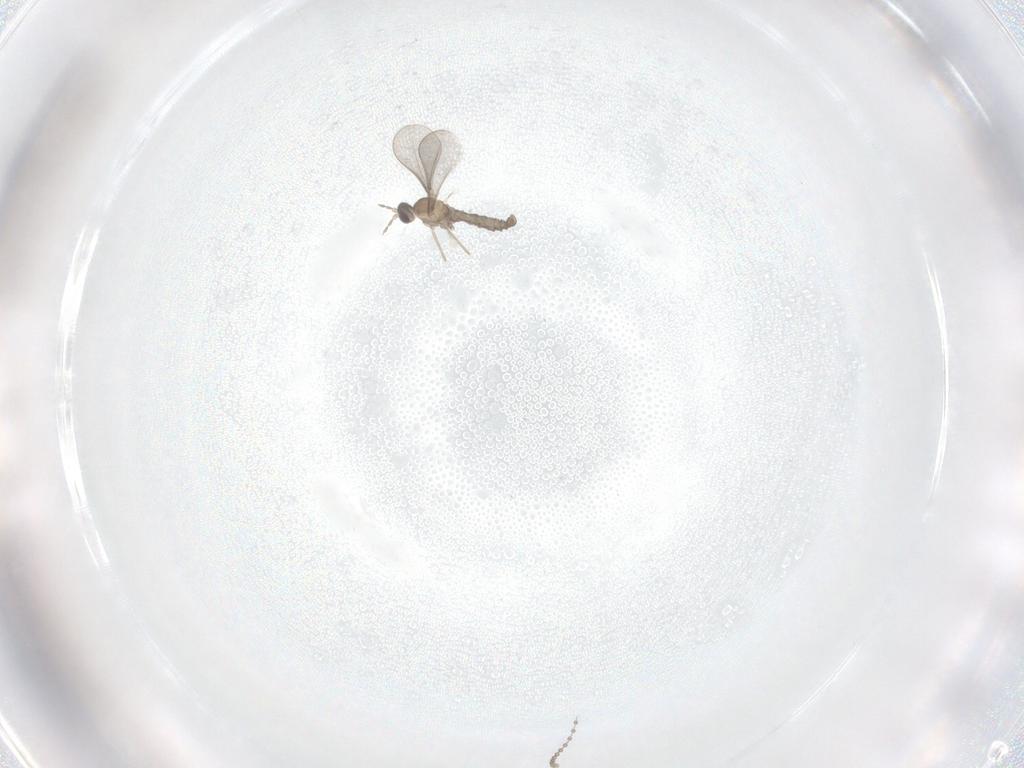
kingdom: Animalia
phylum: Arthropoda
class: Insecta
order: Diptera
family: Cecidomyiidae
